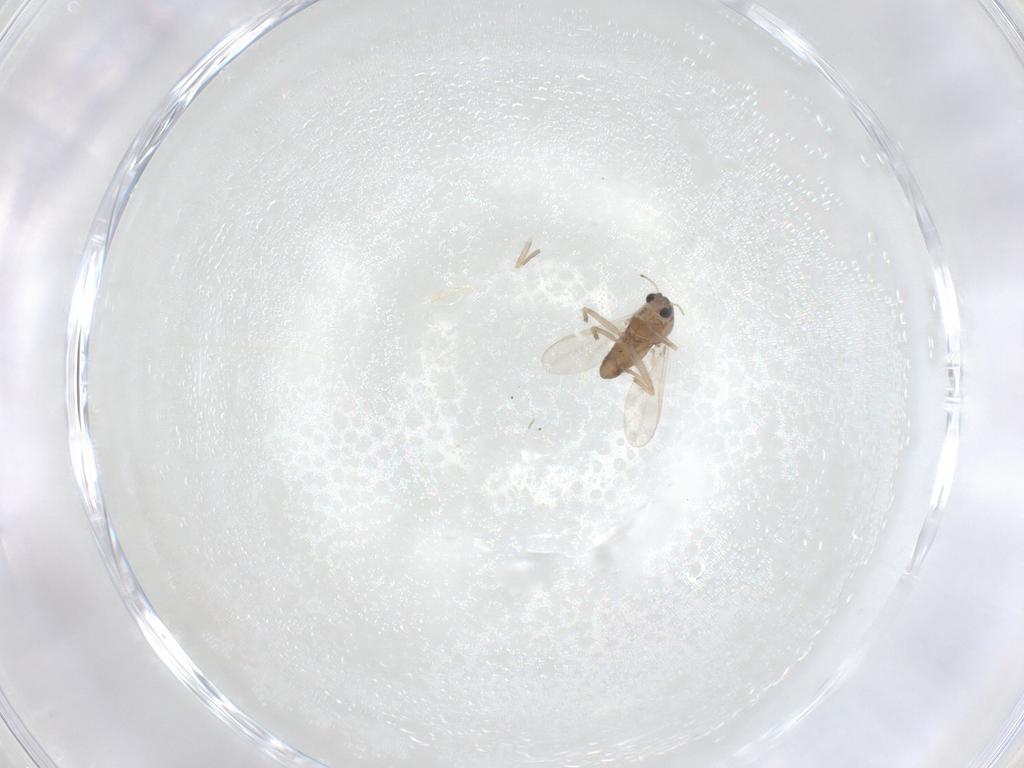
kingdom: Animalia
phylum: Arthropoda
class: Insecta
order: Diptera
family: Chironomidae
